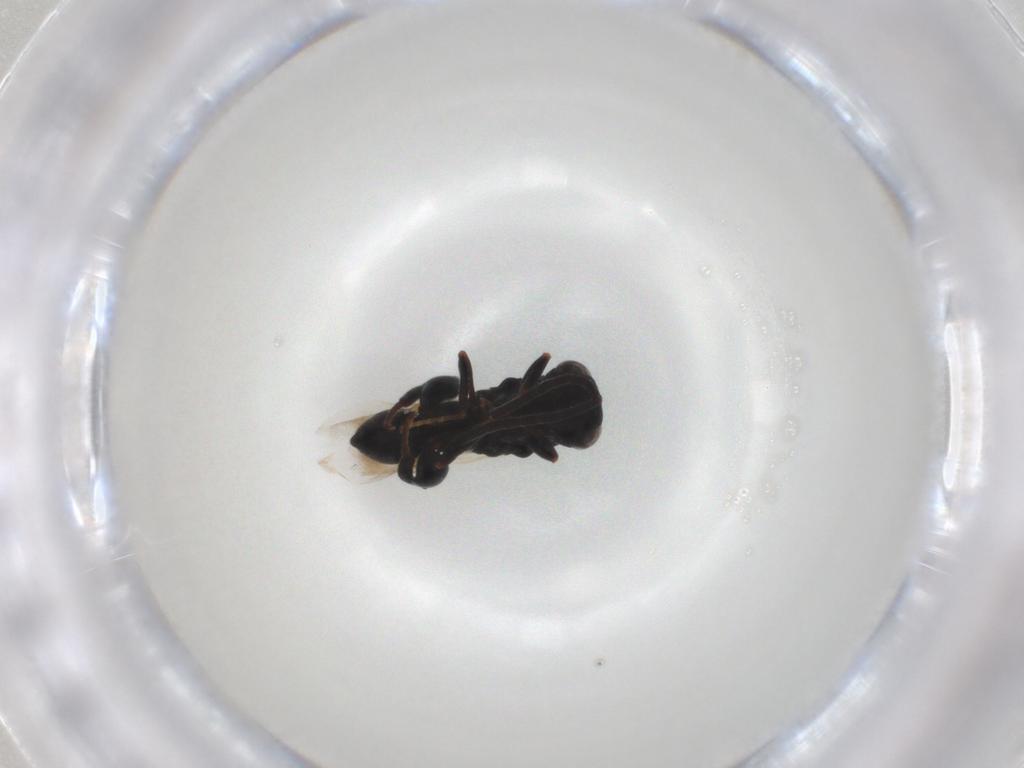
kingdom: Animalia
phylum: Arthropoda
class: Insecta
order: Hymenoptera
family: Chalcididae
